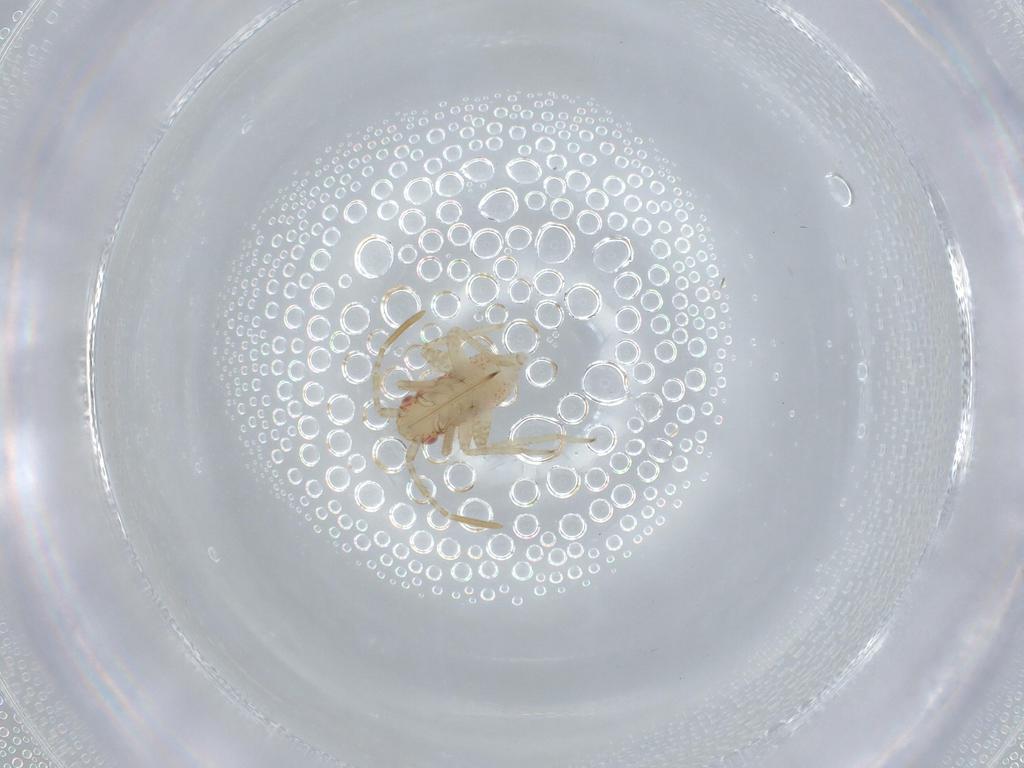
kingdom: Animalia
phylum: Arthropoda
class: Insecta
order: Hemiptera
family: Miridae
